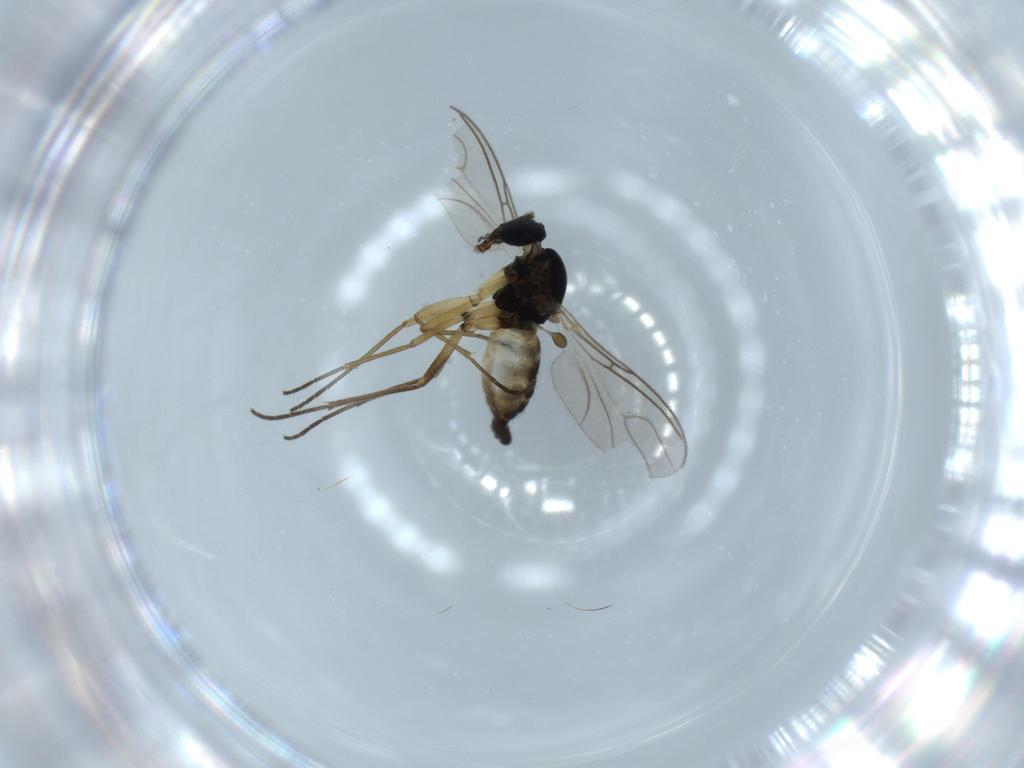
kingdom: Animalia
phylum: Arthropoda
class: Insecta
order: Diptera
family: Sciaridae
